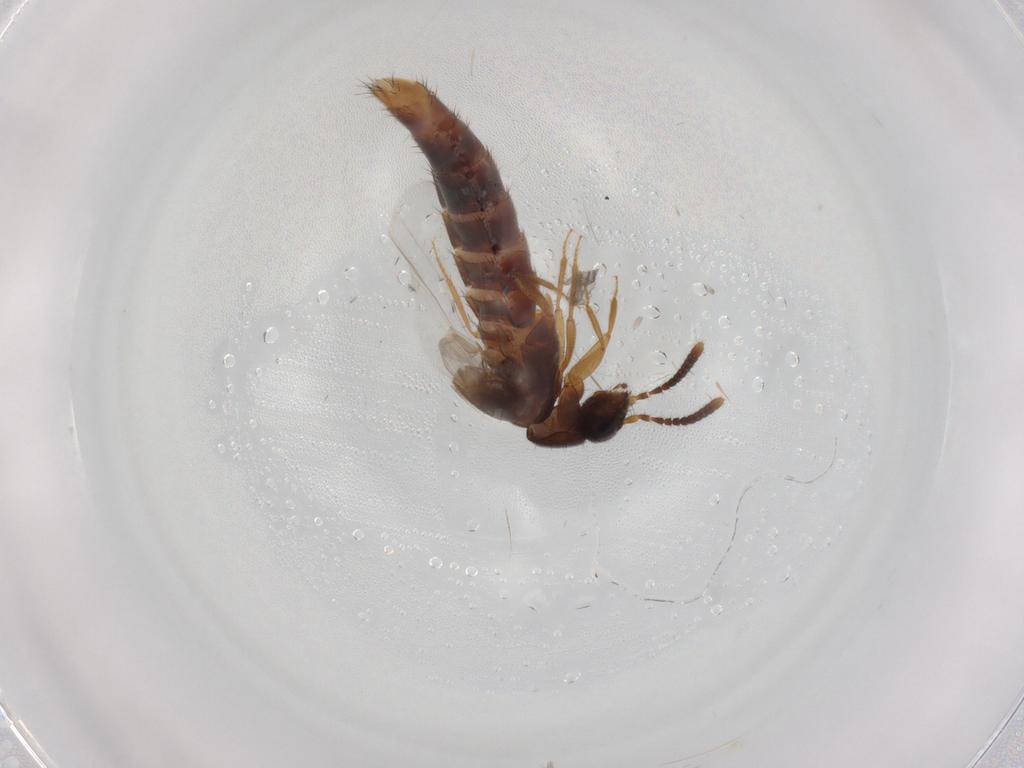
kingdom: Animalia
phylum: Arthropoda
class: Insecta
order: Coleoptera
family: Staphylinidae
